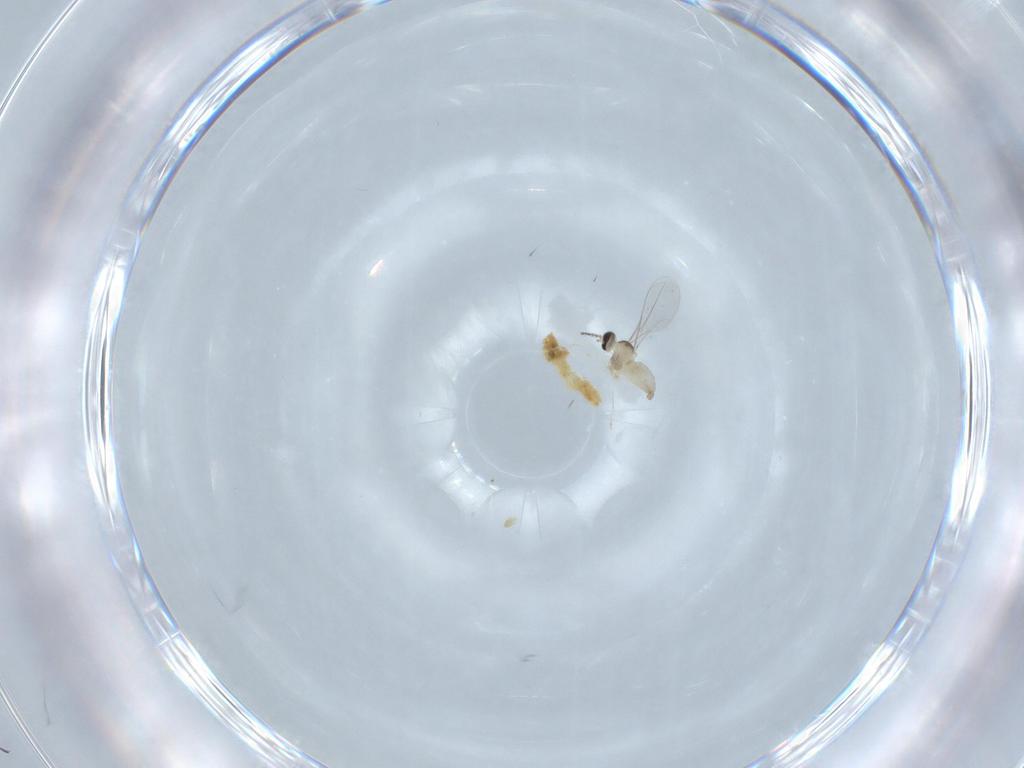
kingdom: Animalia
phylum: Arthropoda
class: Insecta
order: Diptera
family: Cecidomyiidae
